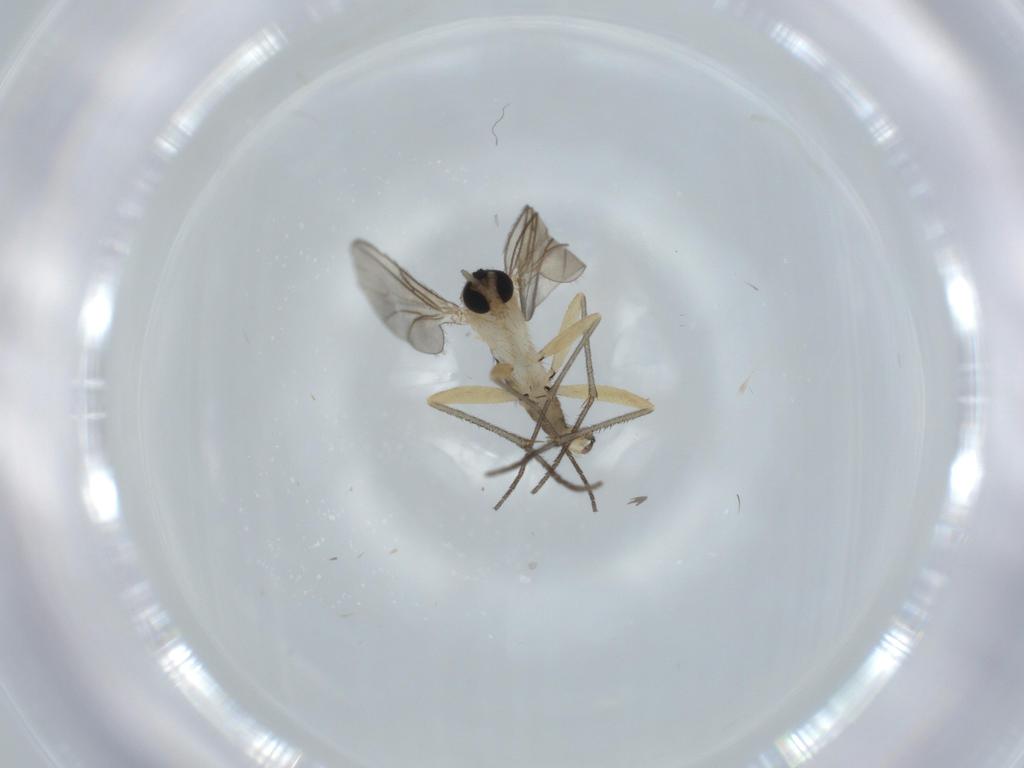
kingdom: Animalia
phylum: Arthropoda
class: Insecta
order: Diptera
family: Sciaridae
